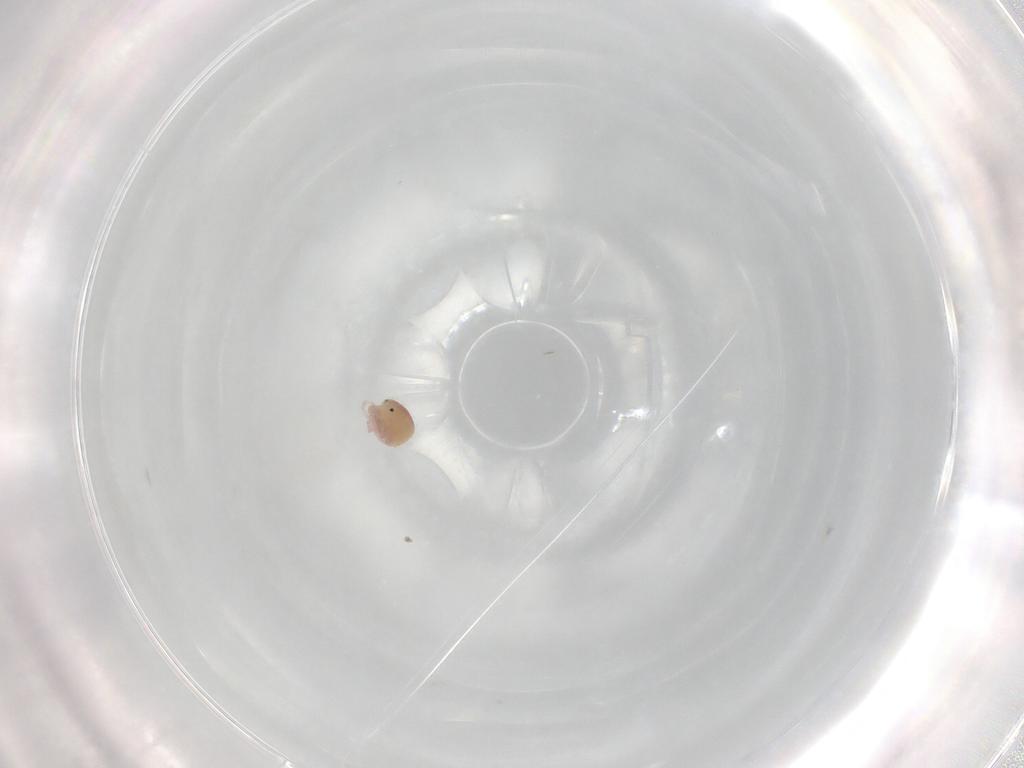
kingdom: Animalia
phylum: Arthropoda
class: Arachnida
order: Trombidiformes
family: Lebertiidae
